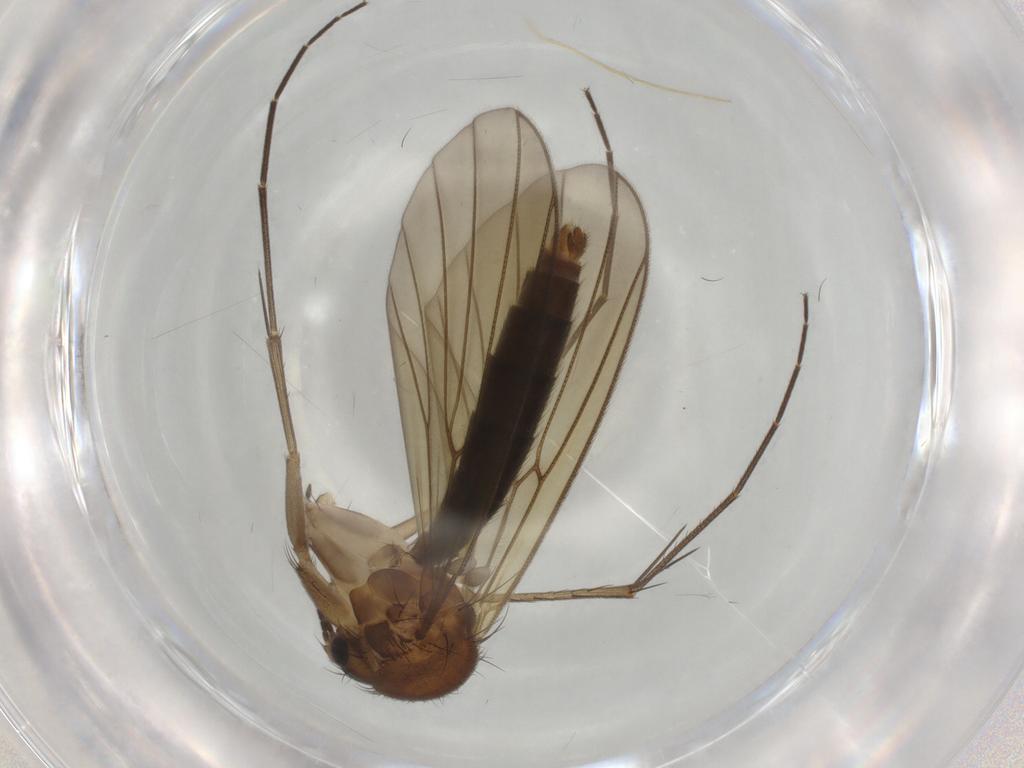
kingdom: Animalia
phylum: Arthropoda
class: Insecta
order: Diptera
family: Mycetophilidae
